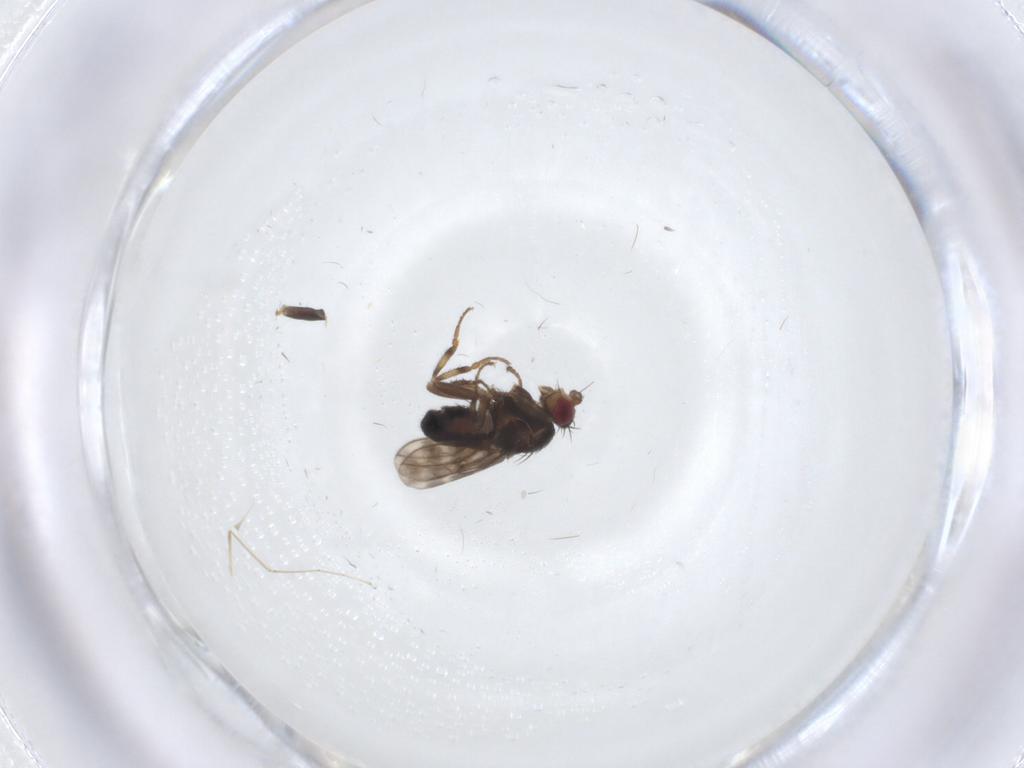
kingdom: Animalia
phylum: Arthropoda
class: Insecta
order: Diptera
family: Sphaeroceridae
